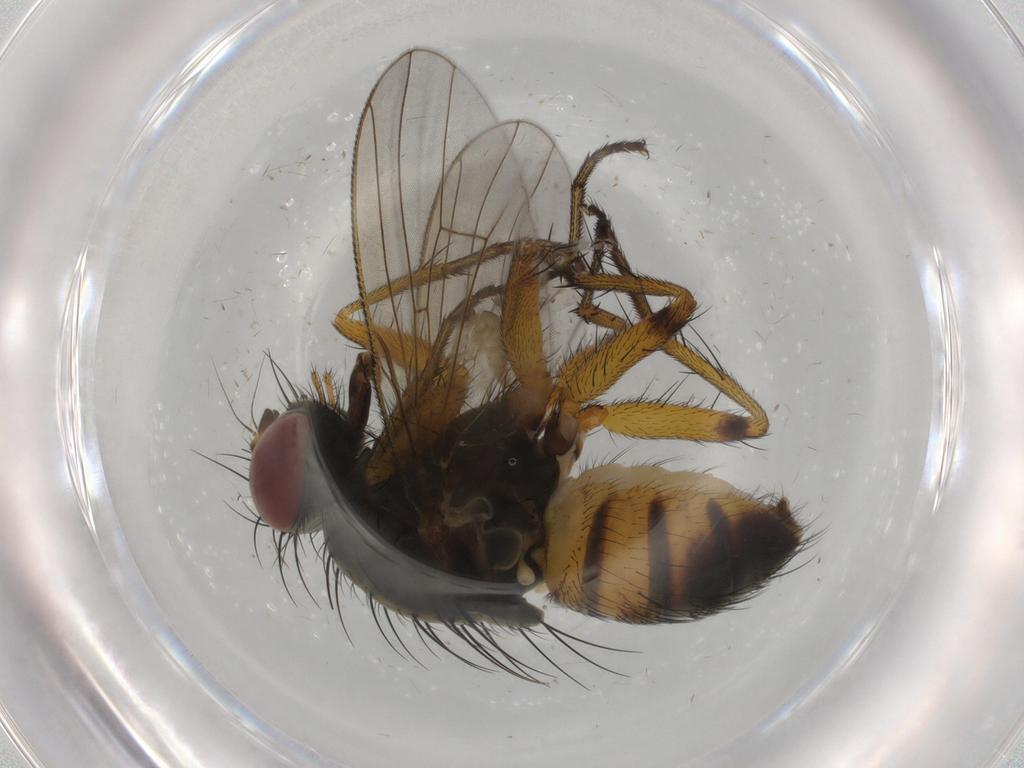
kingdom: Animalia
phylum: Arthropoda
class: Insecta
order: Diptera
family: Muscidae
